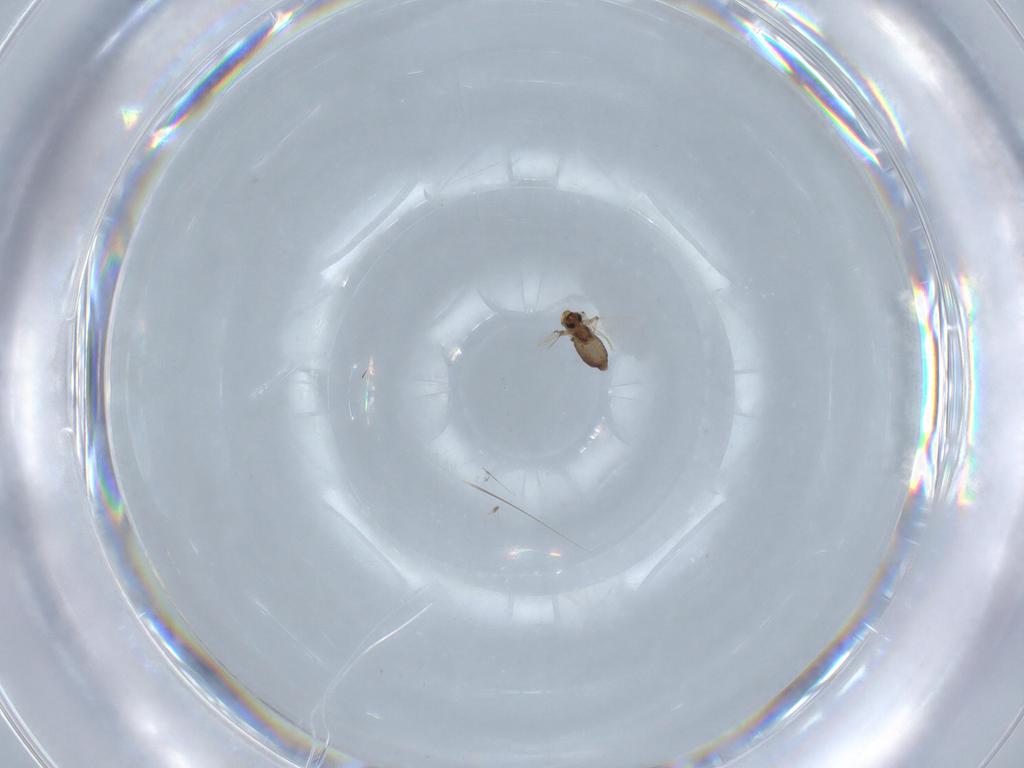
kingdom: Animalia
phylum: Arthropoda
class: Insecta
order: Diptera
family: Chironomidae
